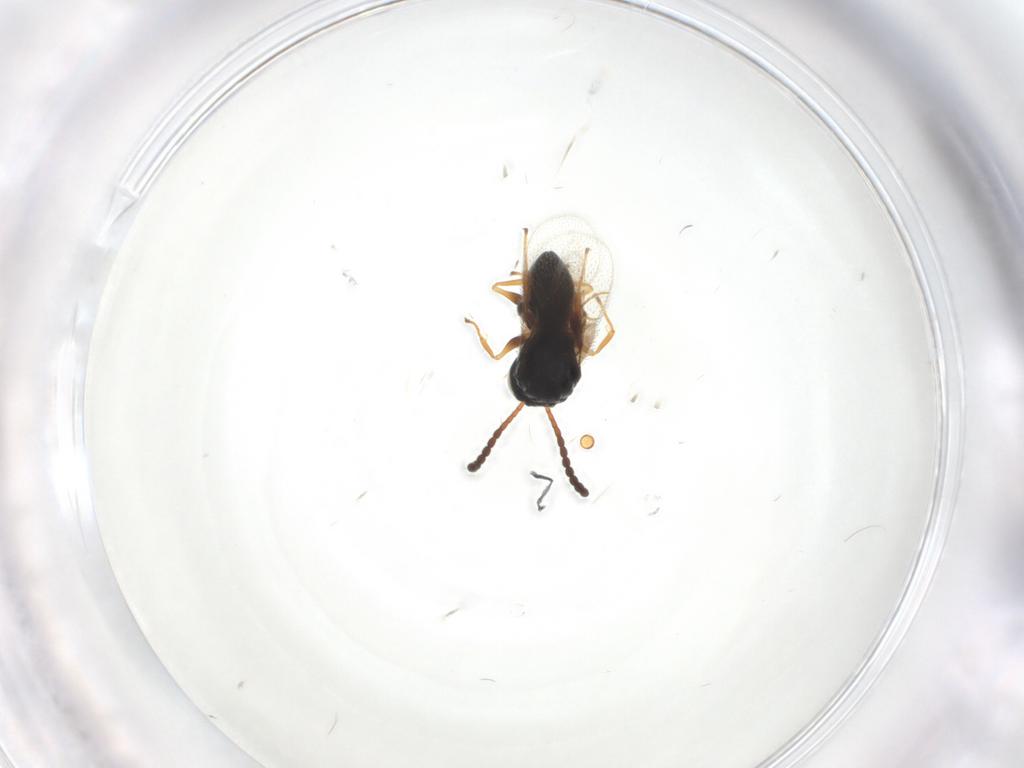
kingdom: Animalia
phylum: Arthropoda
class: Insecta
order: Hymenoptera
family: Figitidae
